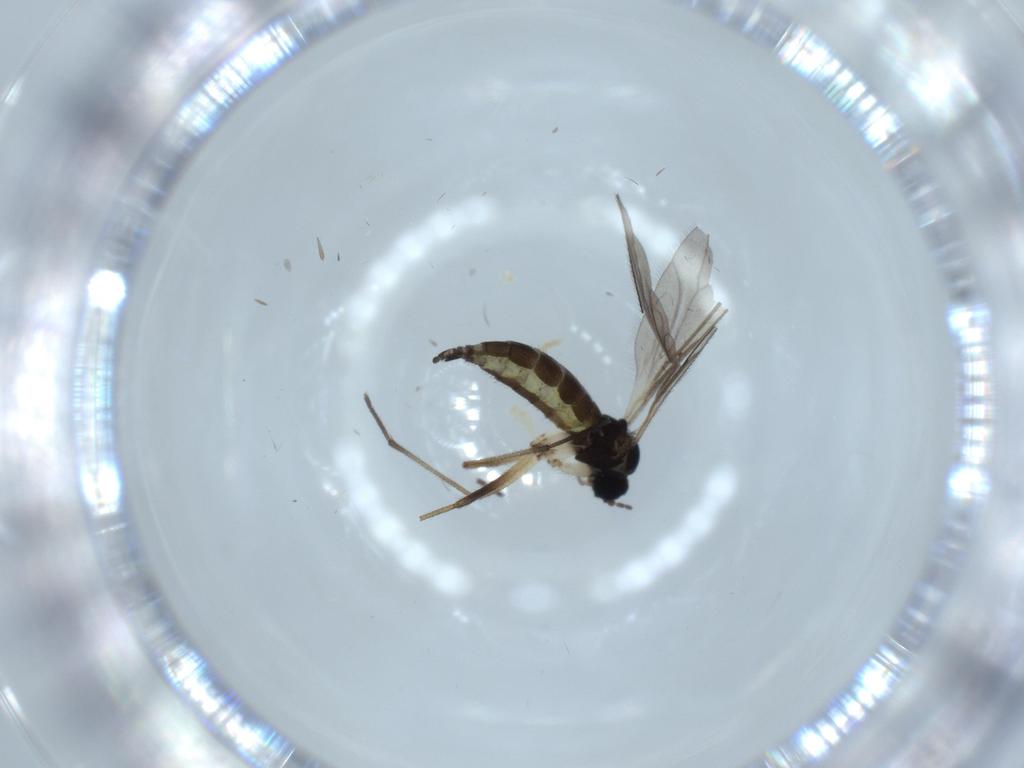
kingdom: Animalia
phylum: Arthropoda
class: Insecta
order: Diptera
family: Sciaridae
